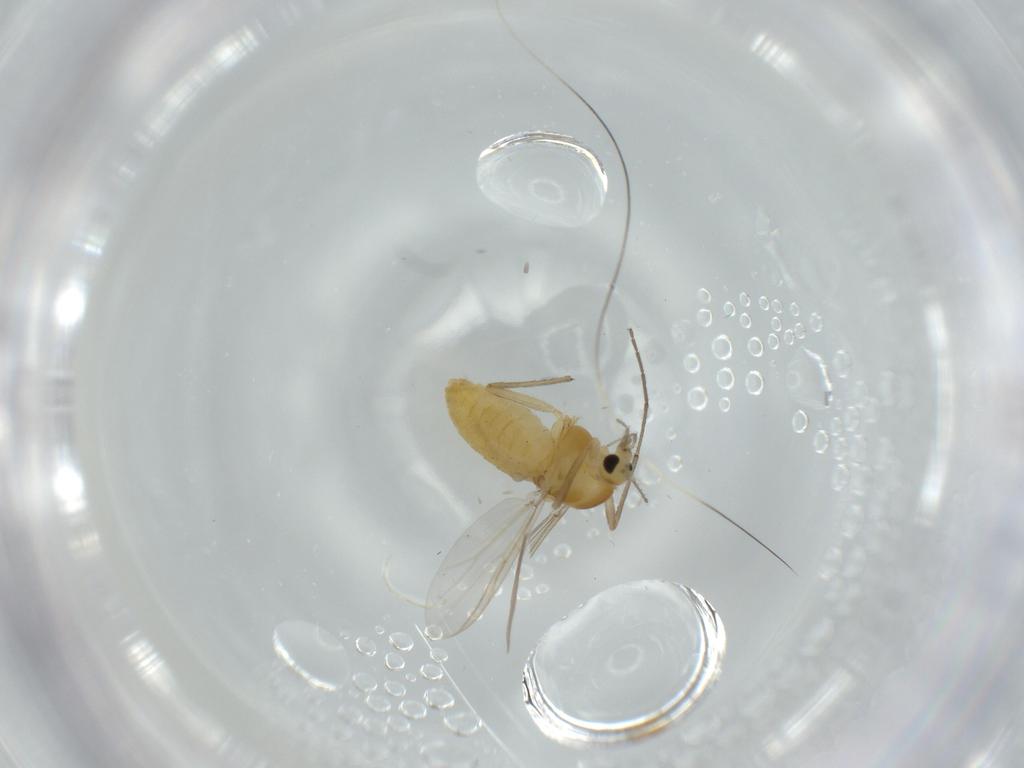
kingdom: Animalia
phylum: Arthropoda
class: Insecta
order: Diptera
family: Chironomidae
